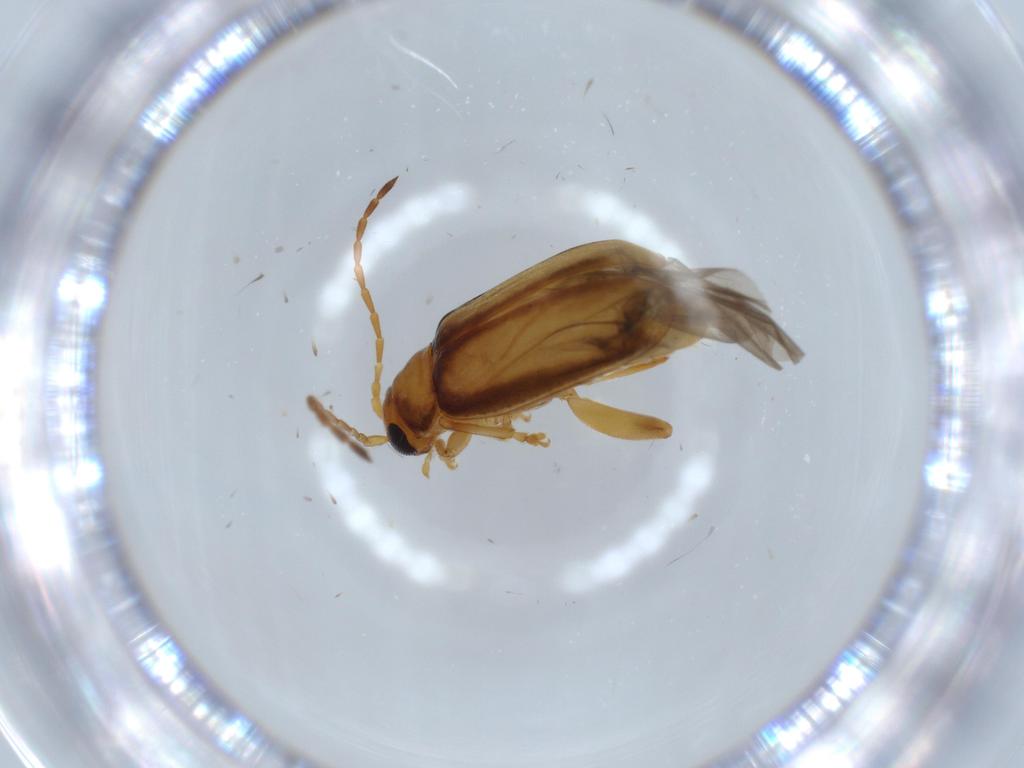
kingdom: Animalia
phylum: Arthropoda
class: Insecta
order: Coleoptera
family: Chrysomelidae
